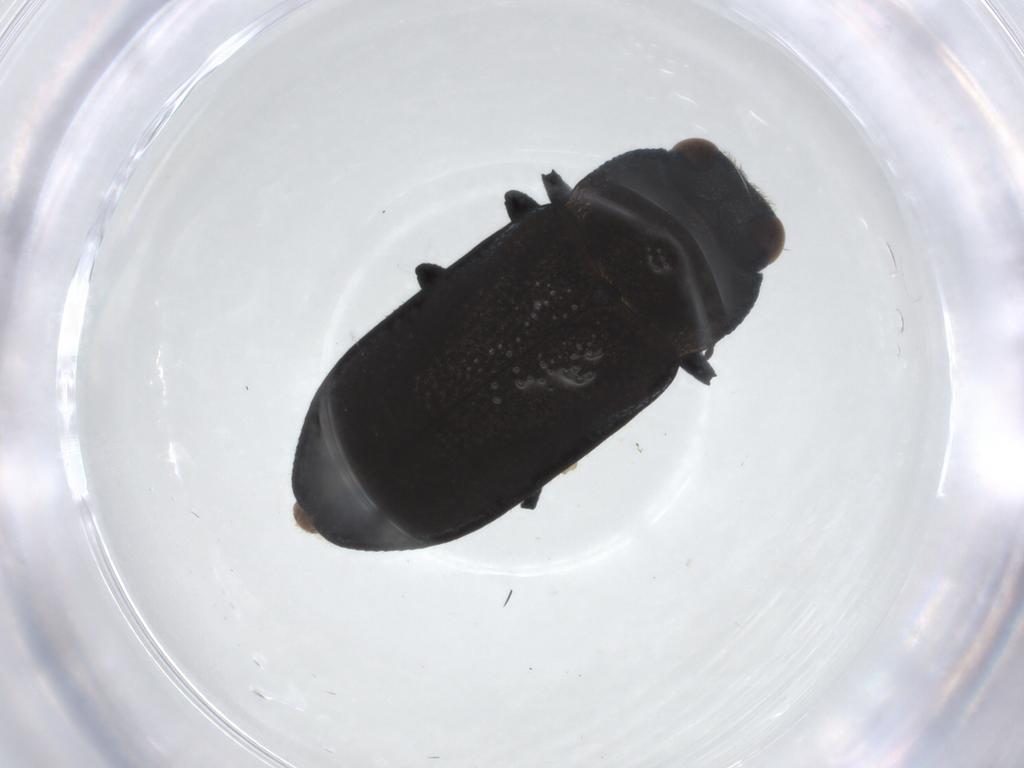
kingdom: Animalia
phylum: Arthropoda
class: Insecta
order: Coleoptera
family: Buprestidae
